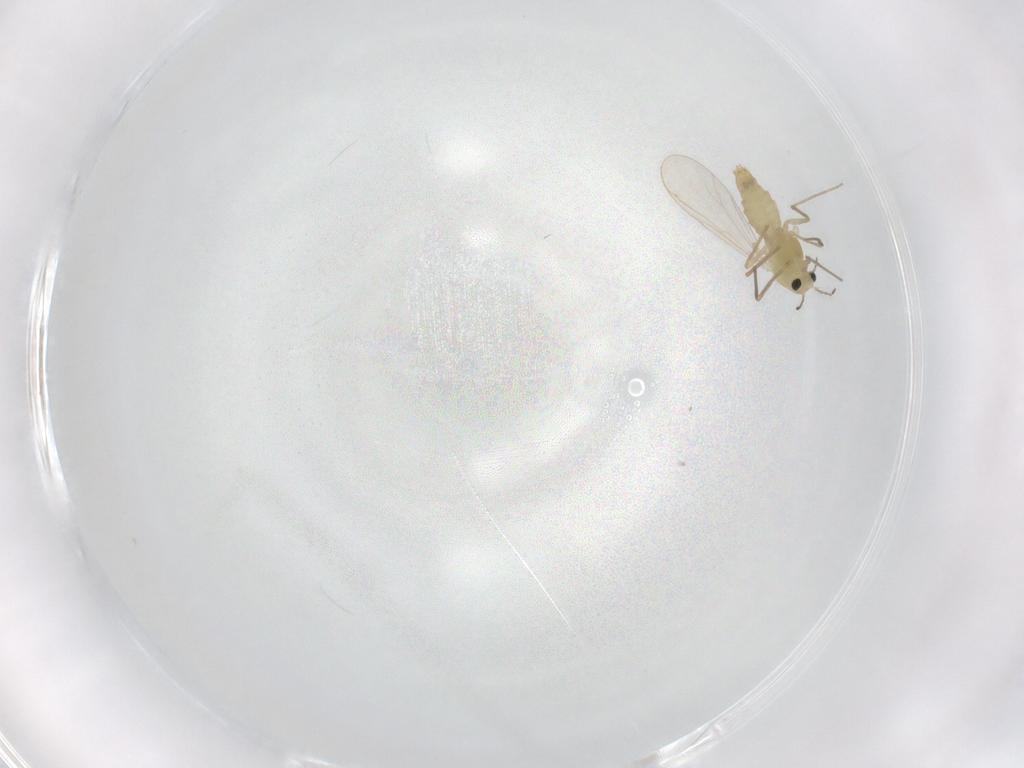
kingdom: Animalia
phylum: Arthropoda
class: Insecta
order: Diptera
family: Chironomidae
